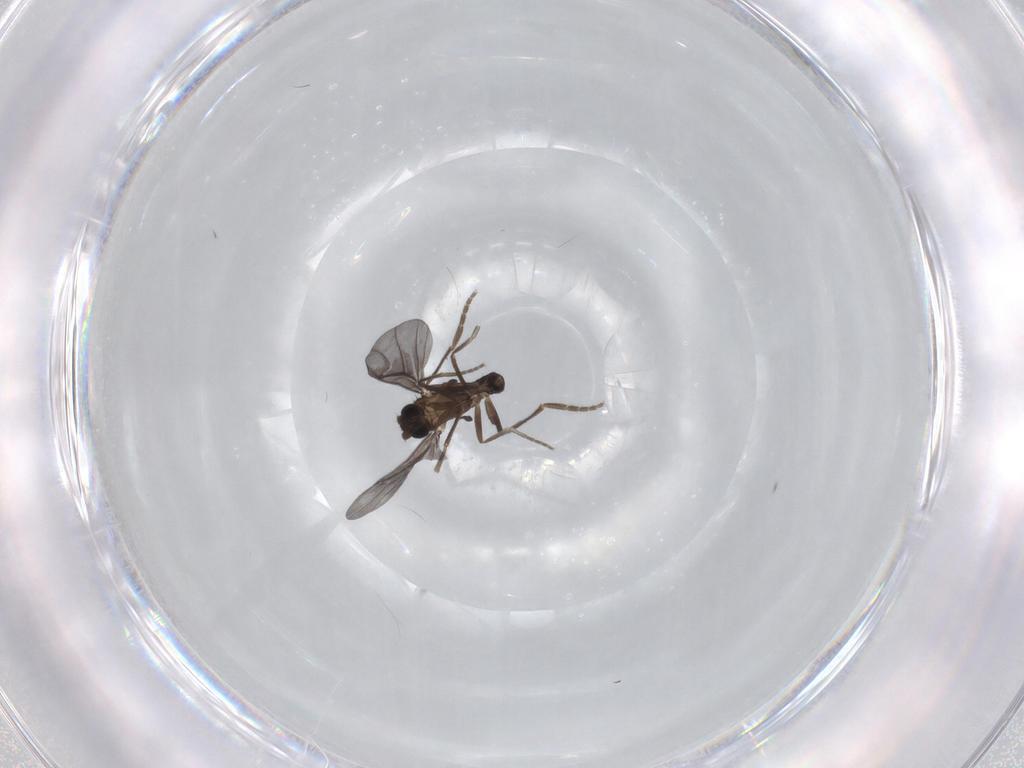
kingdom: Animalia
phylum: Arthropoda
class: Insecta
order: Diptera
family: Phoridae
